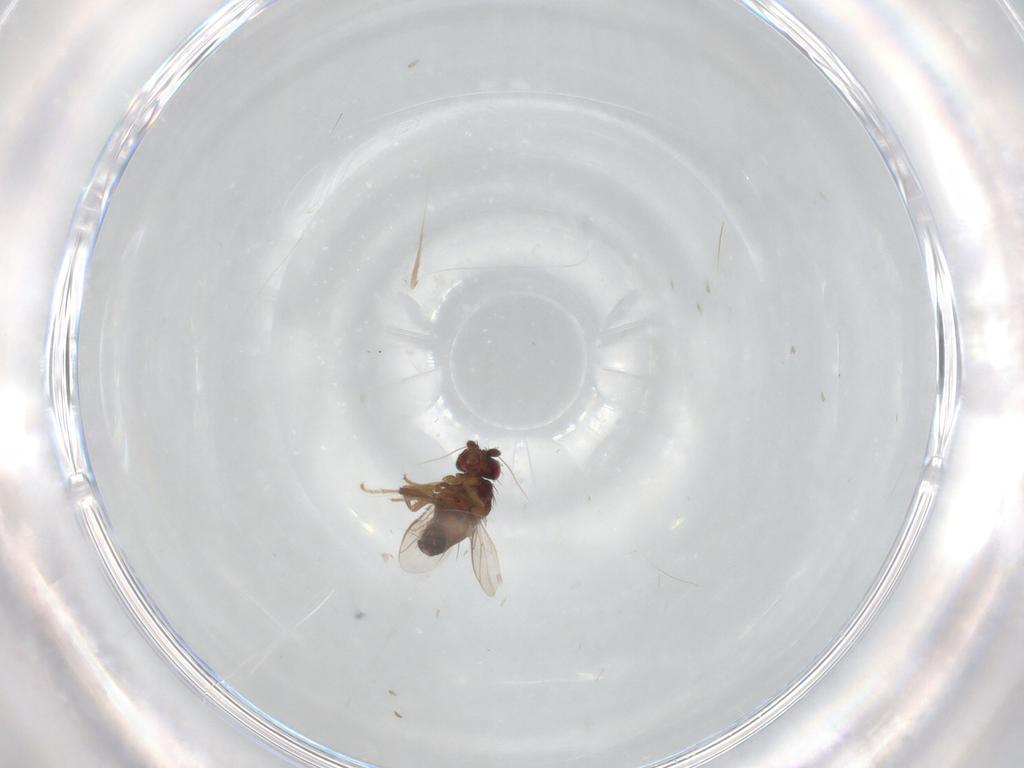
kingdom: Animalia
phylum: Arthropoda
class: Insecta
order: Diptera
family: Sphaeroceridae
